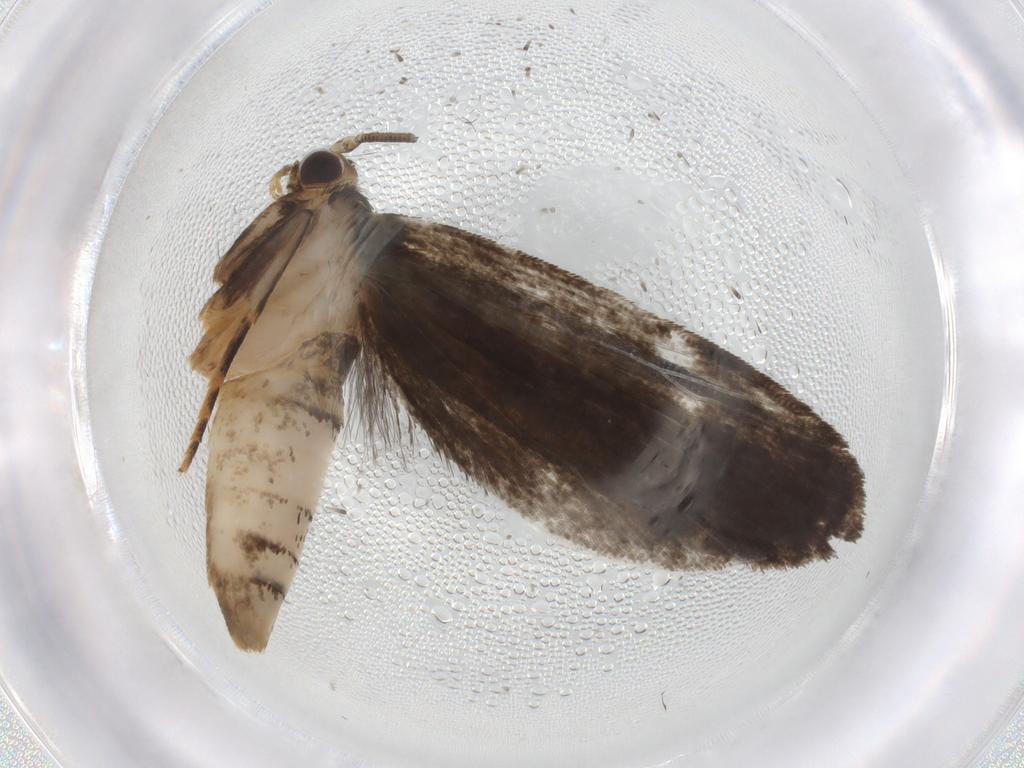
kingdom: Animalia
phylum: Arthropoda
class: Insecta
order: Lepidoptera
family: Tineidae
